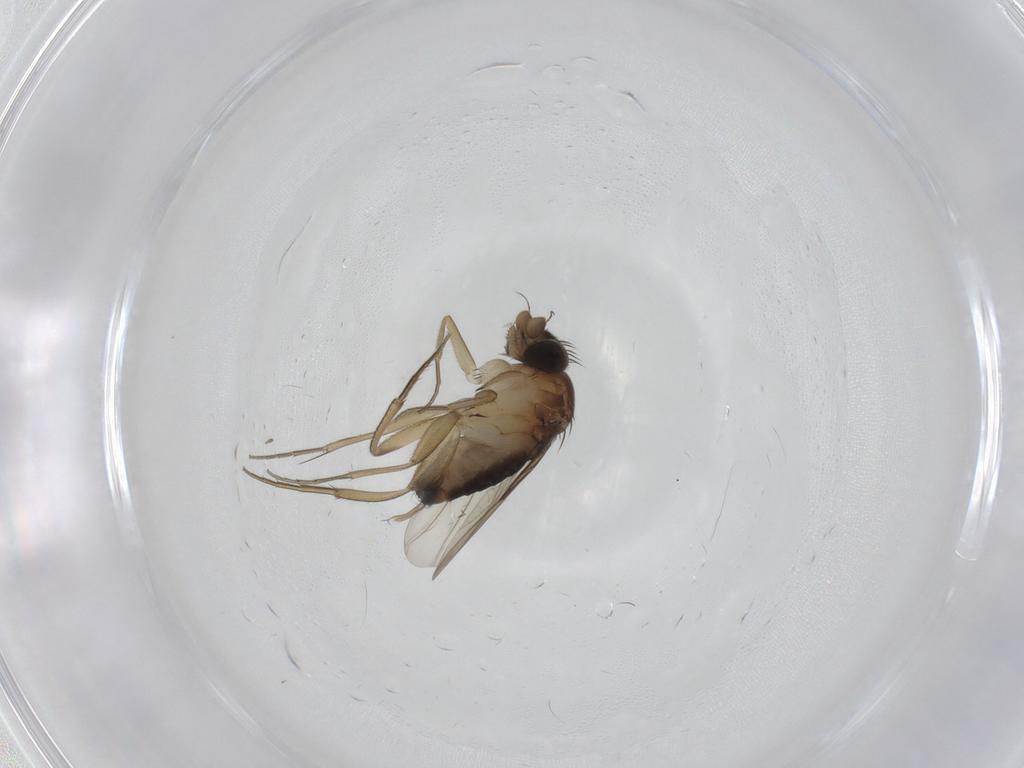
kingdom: Animalia
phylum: Arthropoda
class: Insecta
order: Diptera
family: Phoridae
